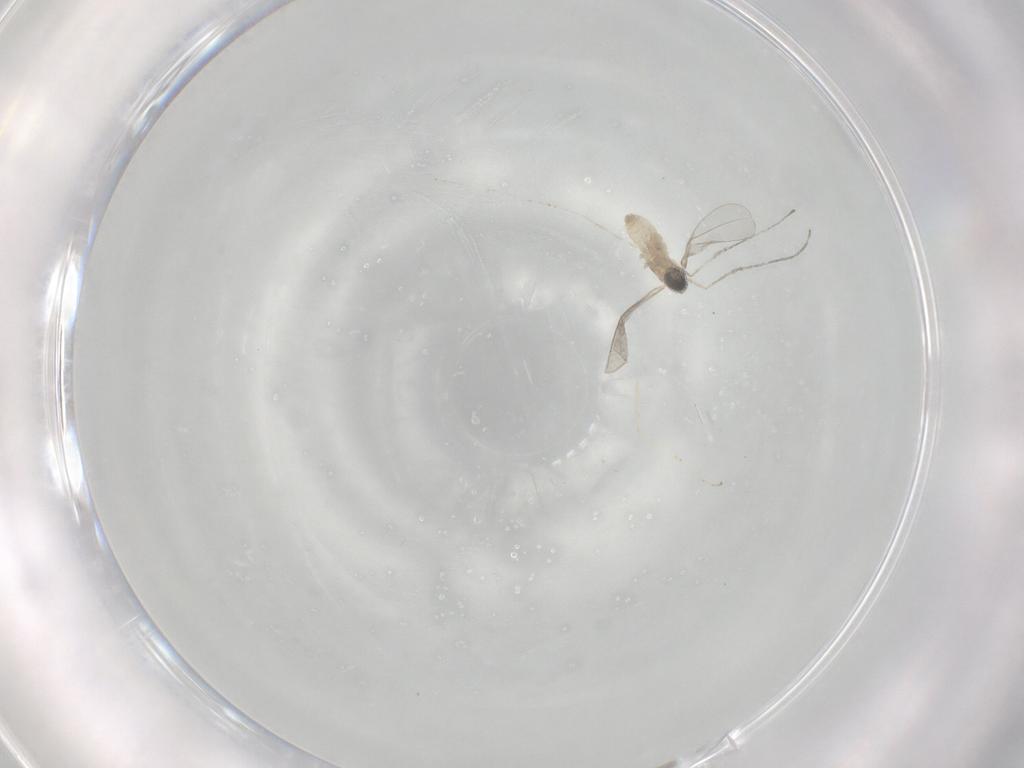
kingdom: Animalia
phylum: Arthropoda
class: Insecta
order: Diptera
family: Cecidomyiidae
